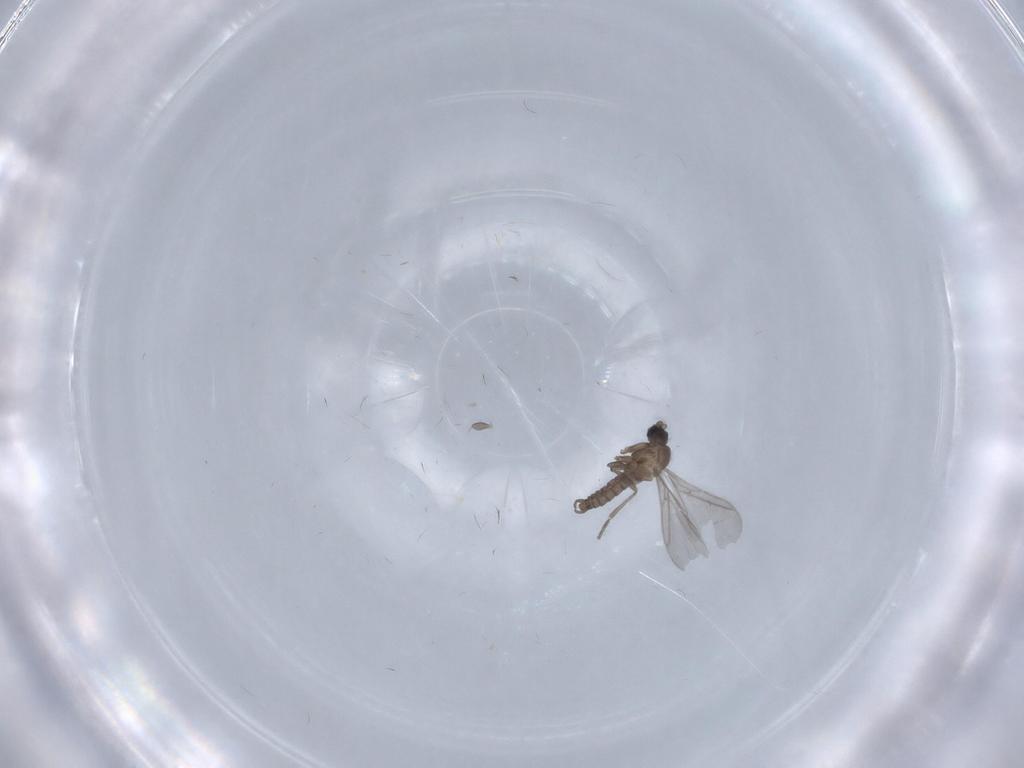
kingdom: Animalia
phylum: Arthropoda
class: Insecta
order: Diptera
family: Sciaridae
